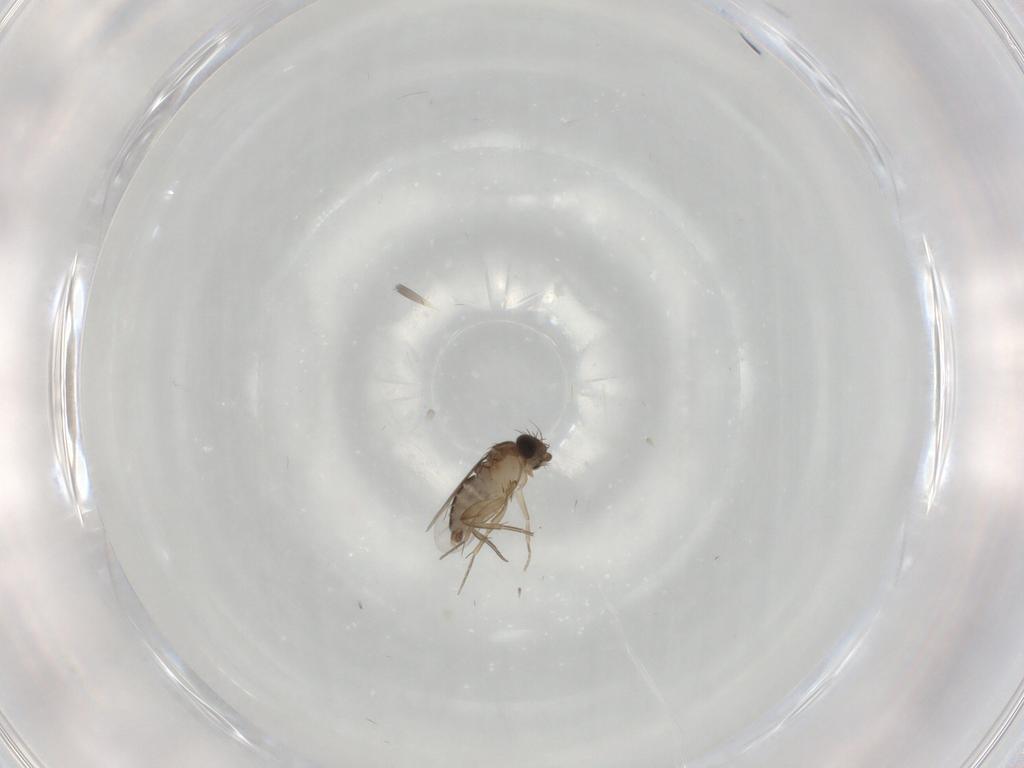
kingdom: Animalia
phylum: Arthropoda
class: Insecta
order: Diptera
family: Phoridae
